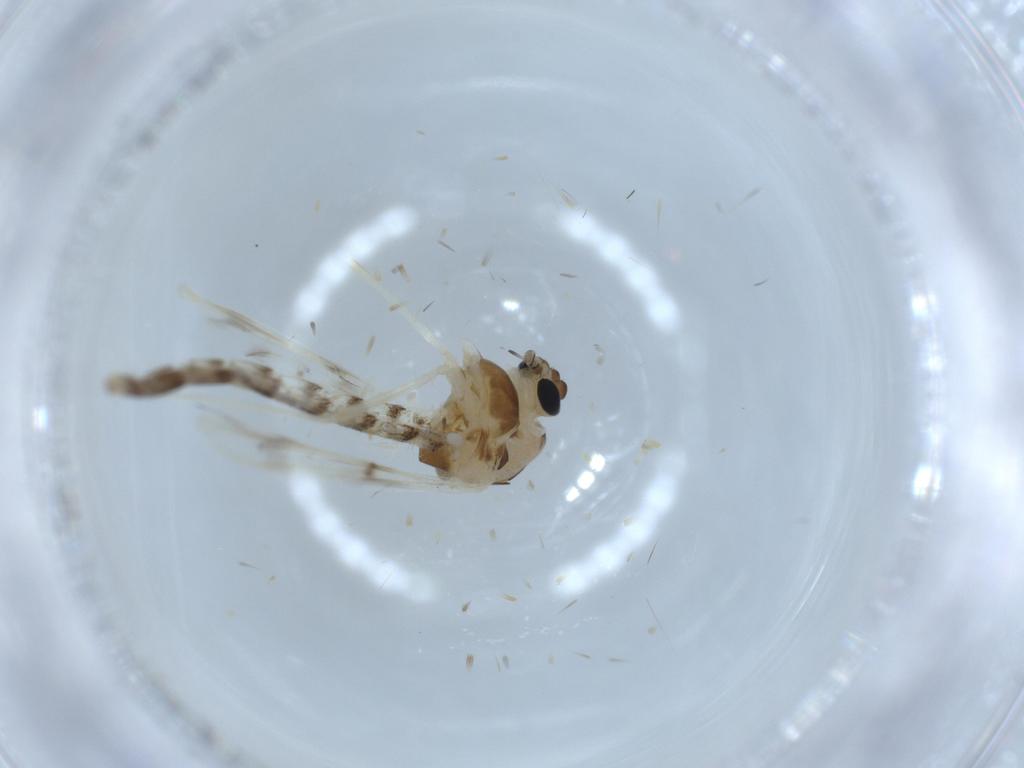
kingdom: Animalia
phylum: Arthropoda
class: Insecta
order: Diptera
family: Chironomidae
